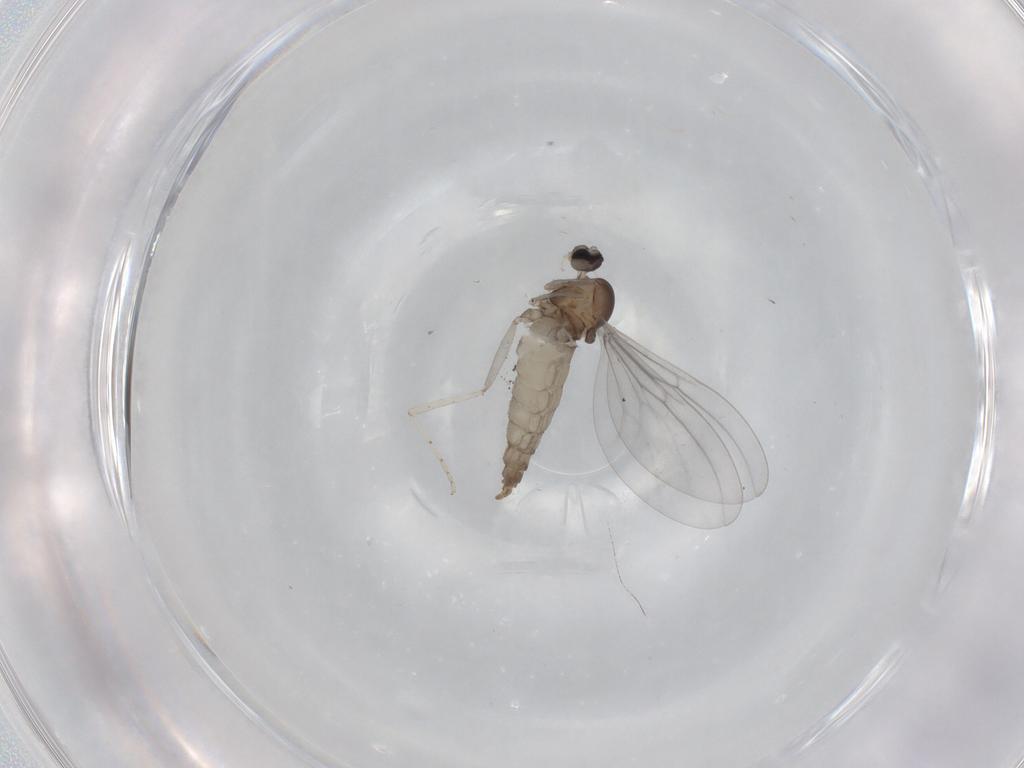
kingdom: Animalia
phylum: Arthropoda
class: Insecta
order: Diptera
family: Cecidomyiidae
